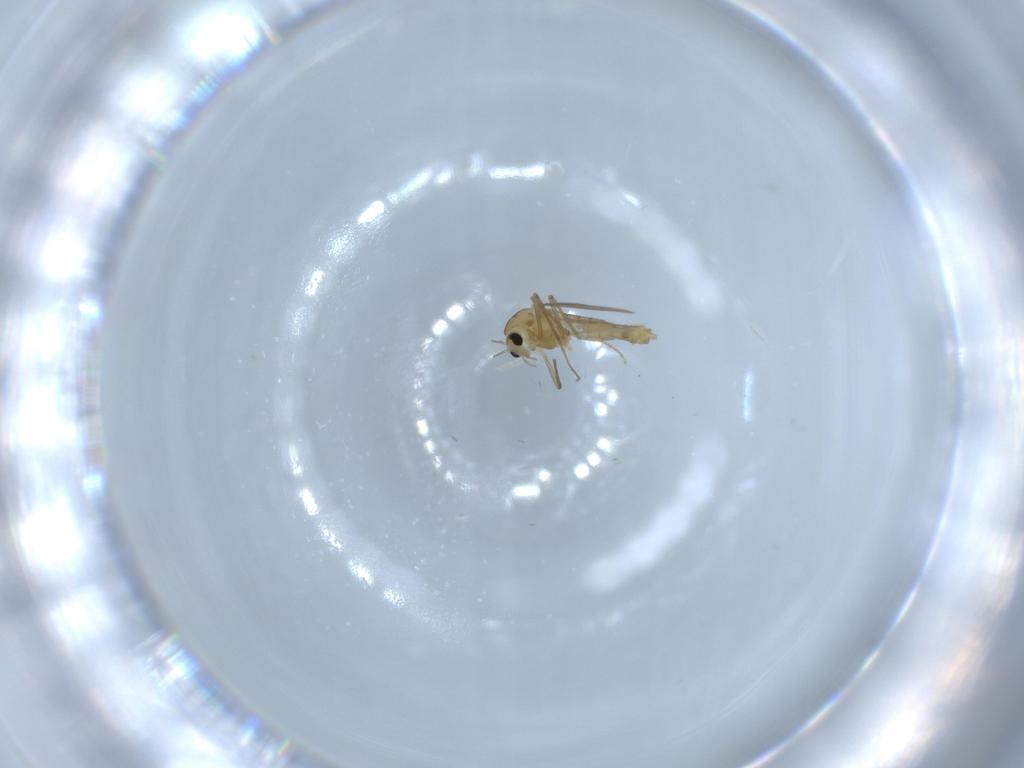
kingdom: Animalia
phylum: Arthropoda
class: Insecta
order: Diptera
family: Chironomidae
